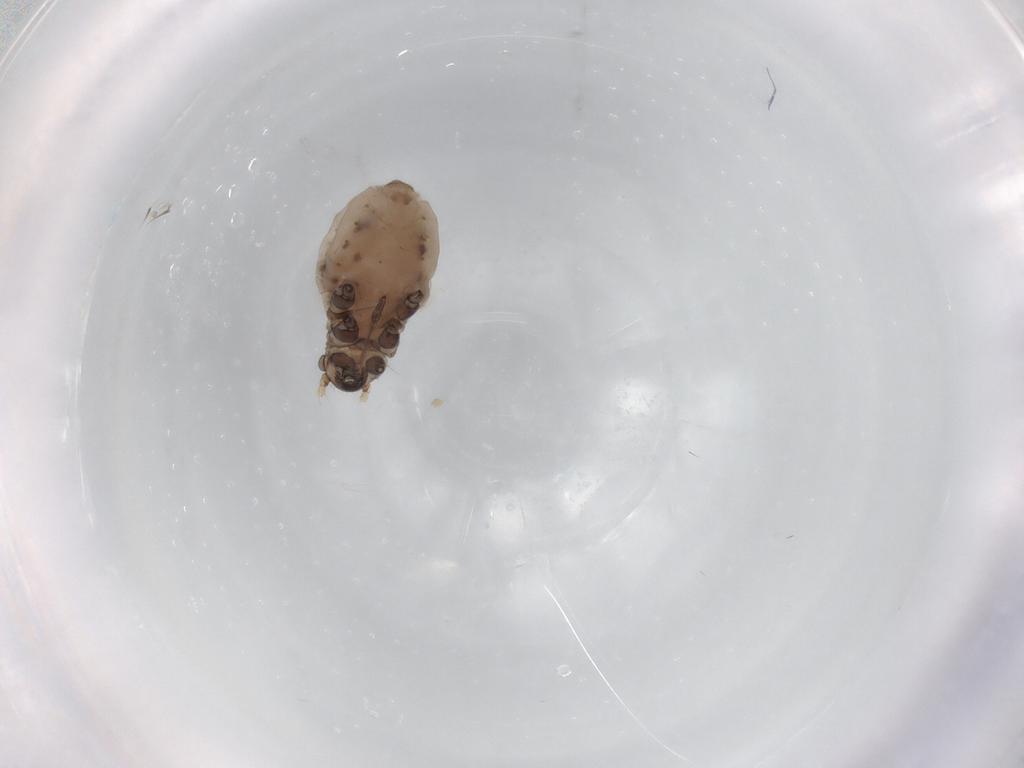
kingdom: Animalia
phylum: Arthropoda
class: Insecta
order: Hemiptera
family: Aphididae
